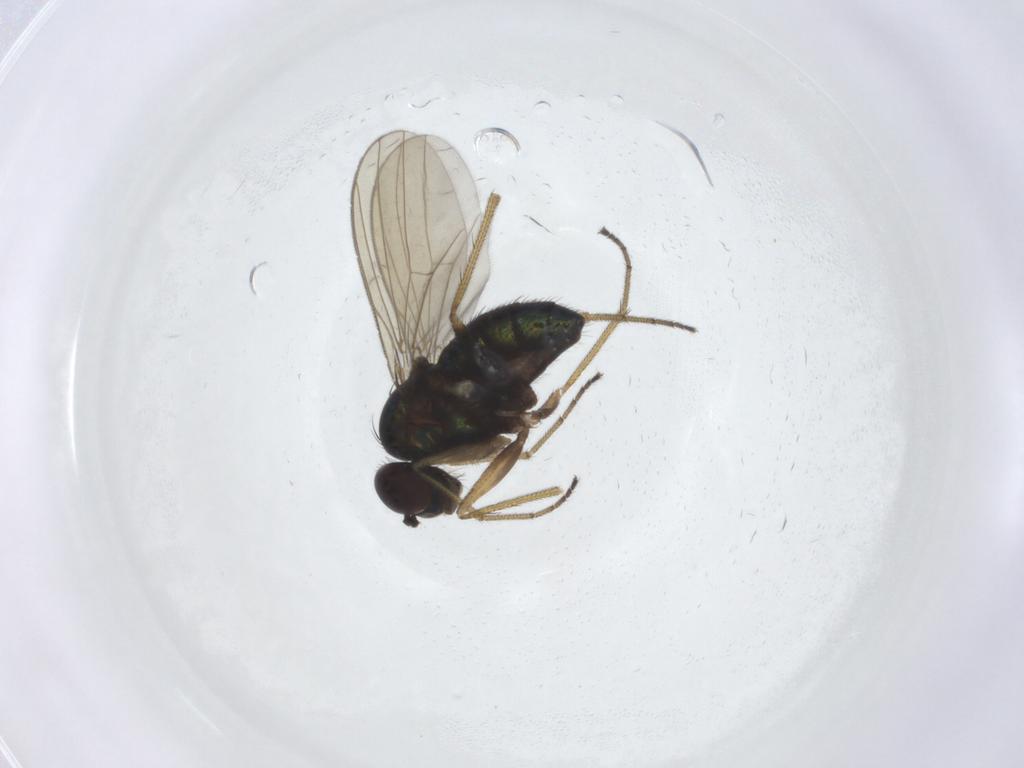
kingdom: Animalia
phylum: Arthropoda
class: Insecta
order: Diptera
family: Dolichopodidae
